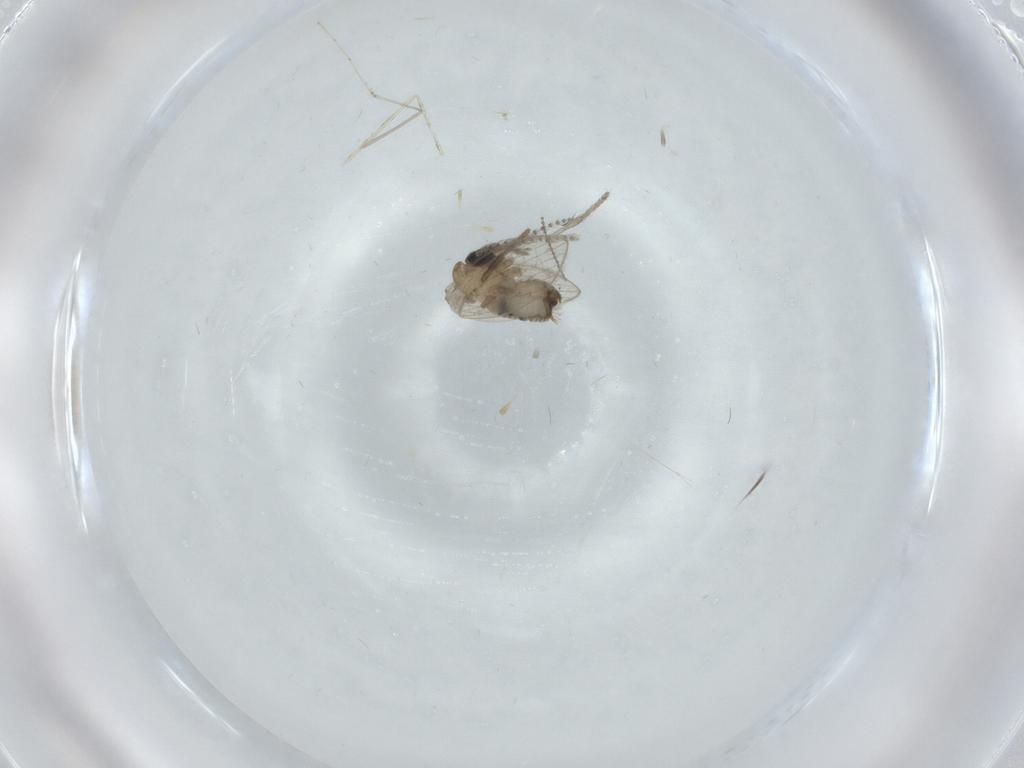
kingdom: Animalia
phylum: Arthropoda
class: Insecta
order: Diptera
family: Psychodidae
